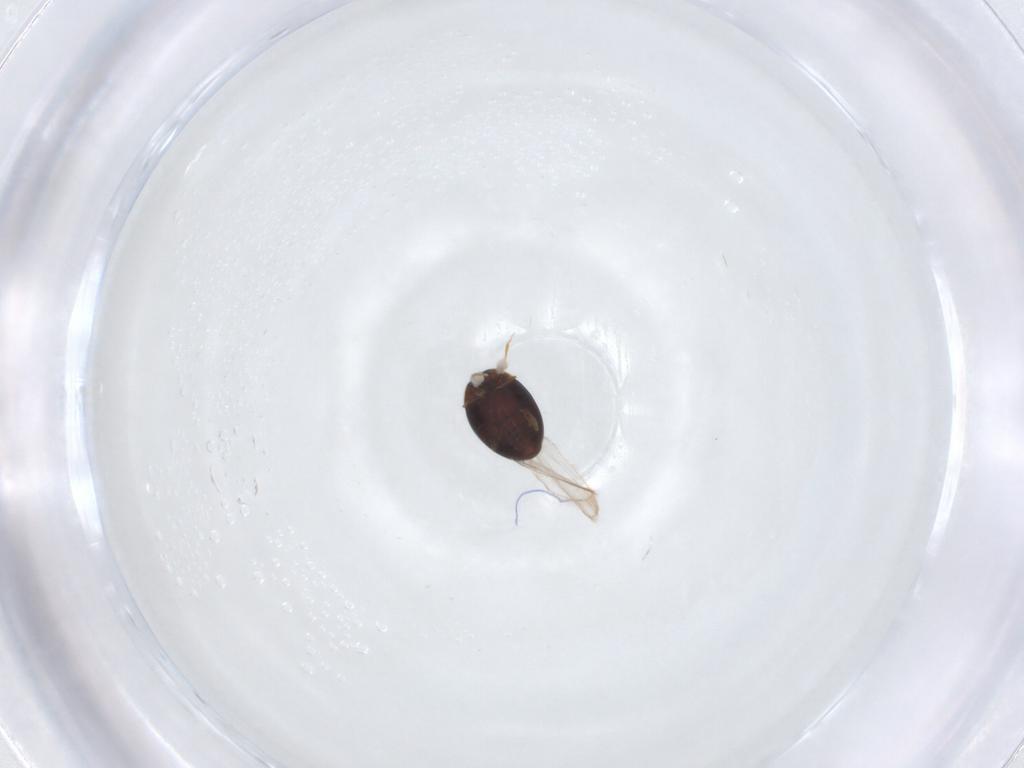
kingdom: Animalia
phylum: Arthropoda
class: Insecta
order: Coleoptera
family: Corylophidae
